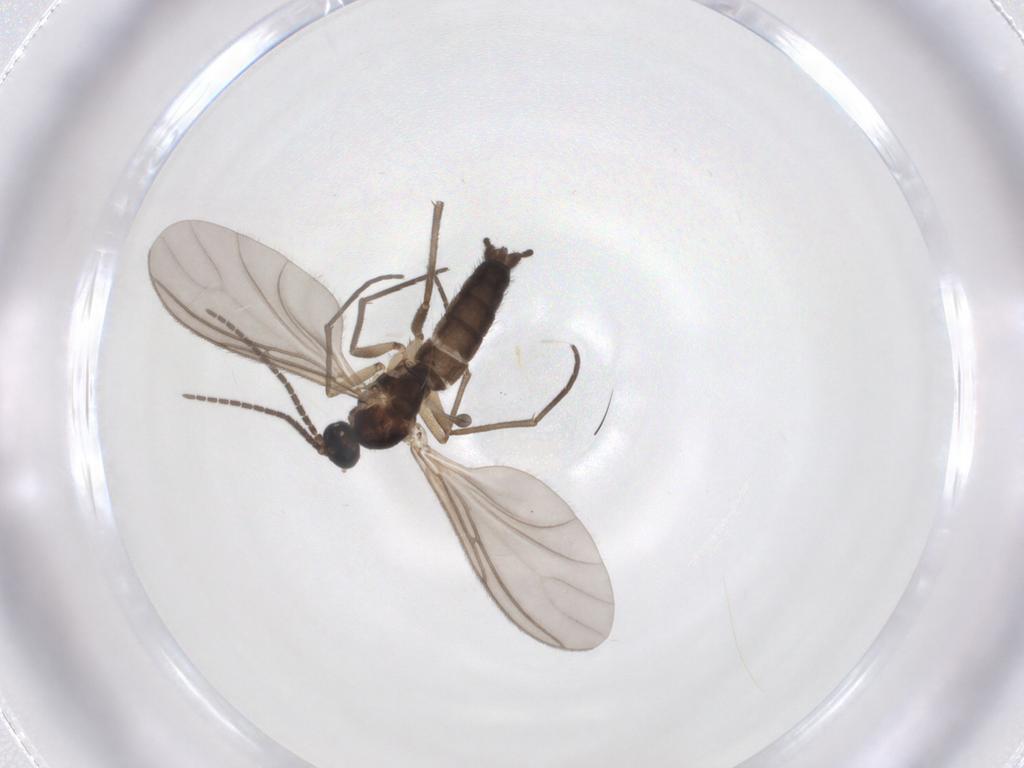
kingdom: Animalia
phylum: Arthropoda
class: Insecta
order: Diptera
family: Sciaridae
